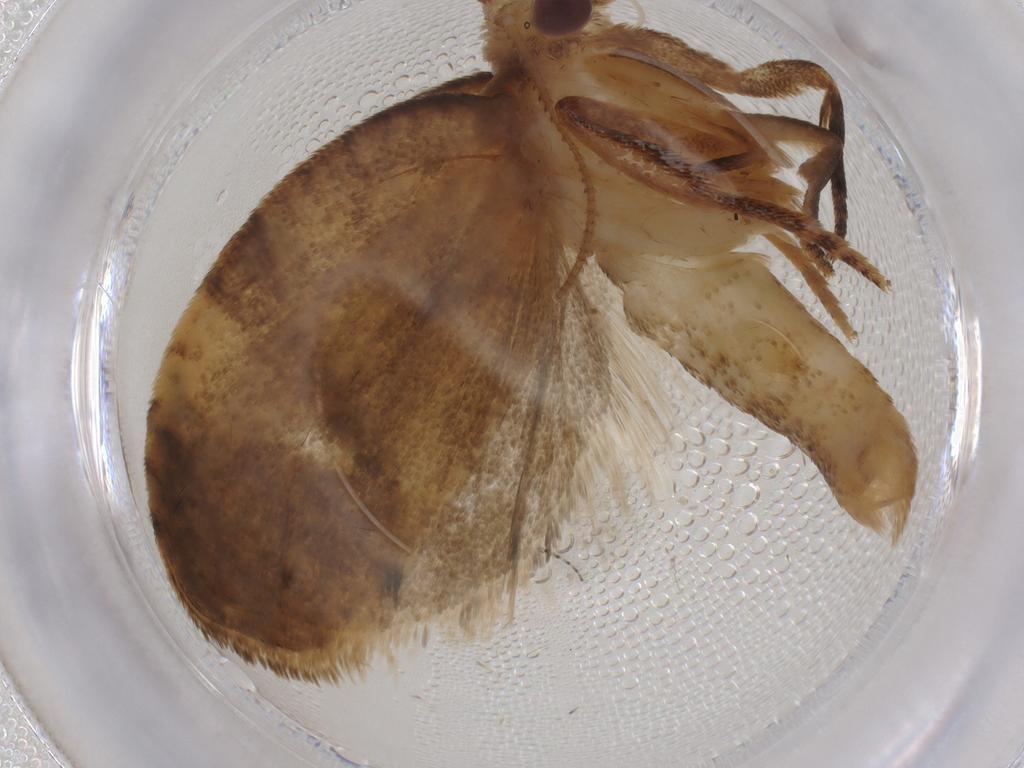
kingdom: Animalia
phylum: Arthropoda
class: Insecta
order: Lepidoptera
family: Tortricidae
